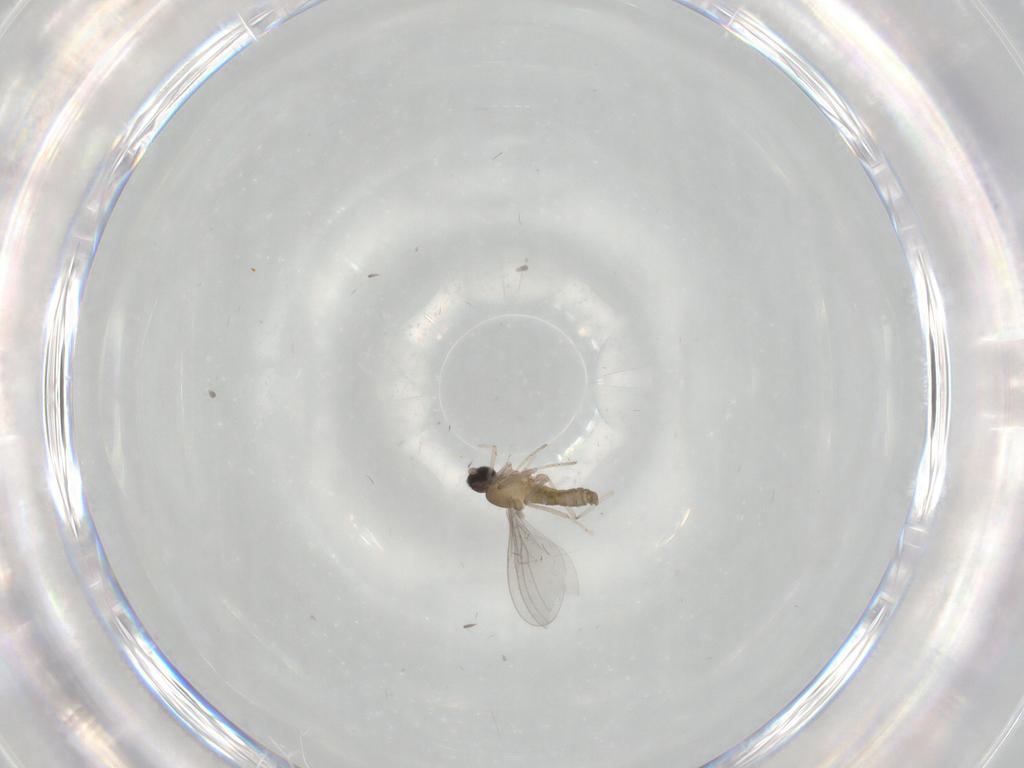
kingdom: Animalia
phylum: Arthropoda
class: Insecta
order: Diptera
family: Cecidomyiidae
